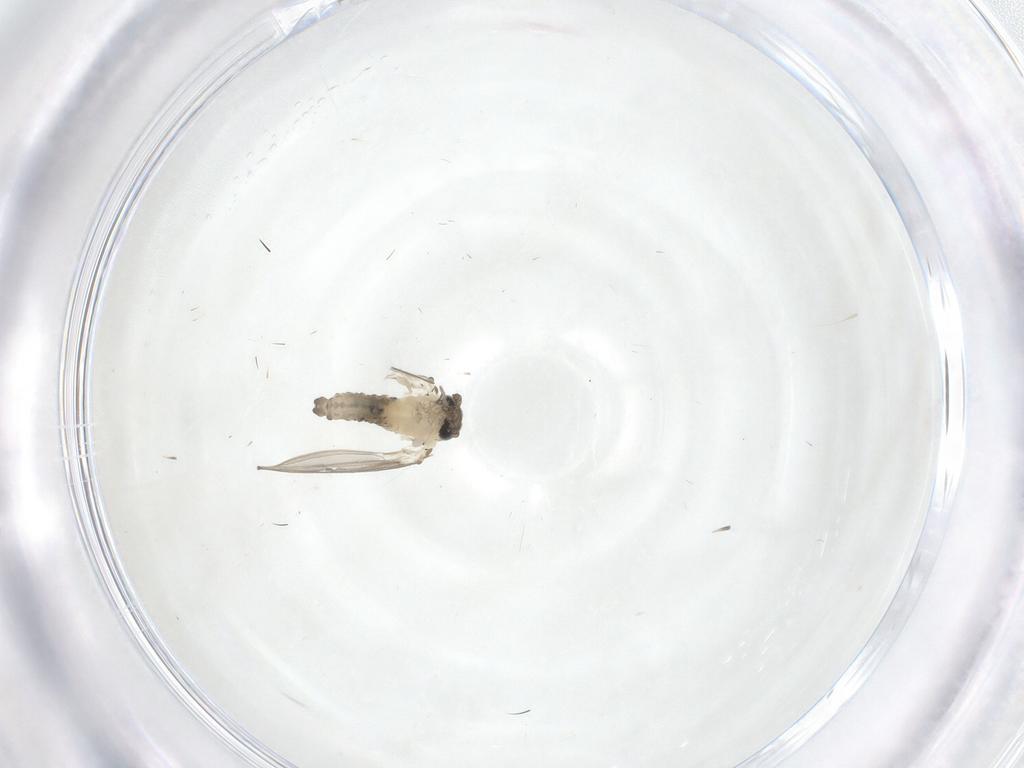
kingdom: Animalia
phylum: Arthropoda
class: Insecta
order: Diptera
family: Psychodidae
